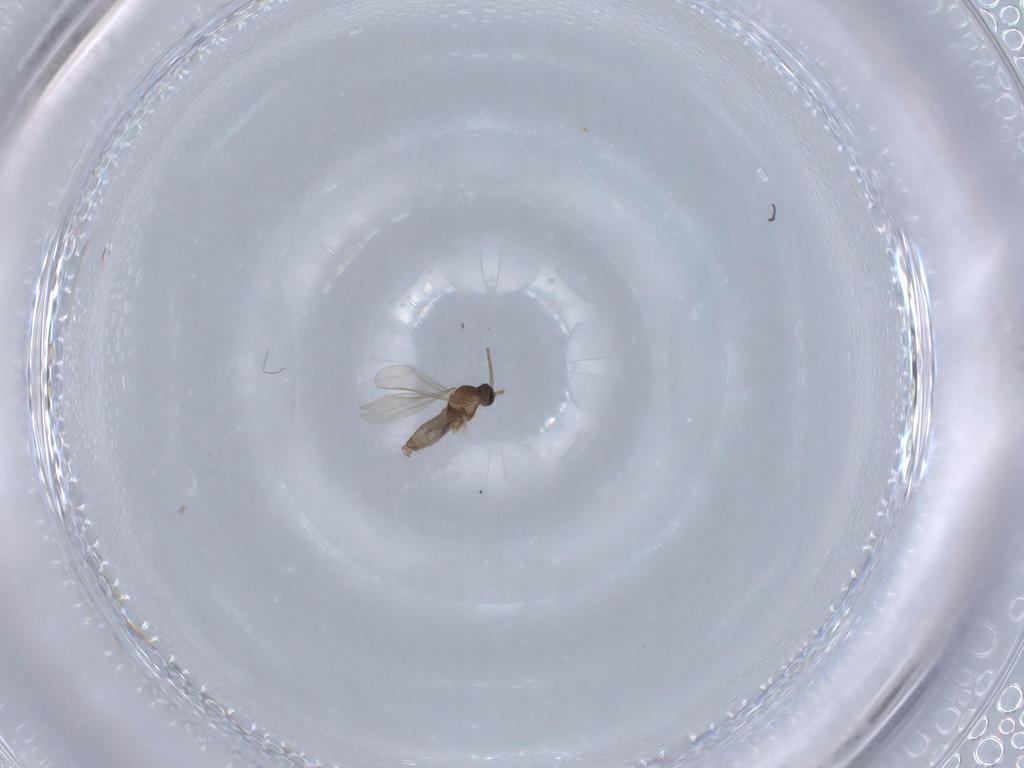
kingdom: Animalia
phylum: Arthropoda
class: Insecta
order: Diptera
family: Cecidomyiidae
